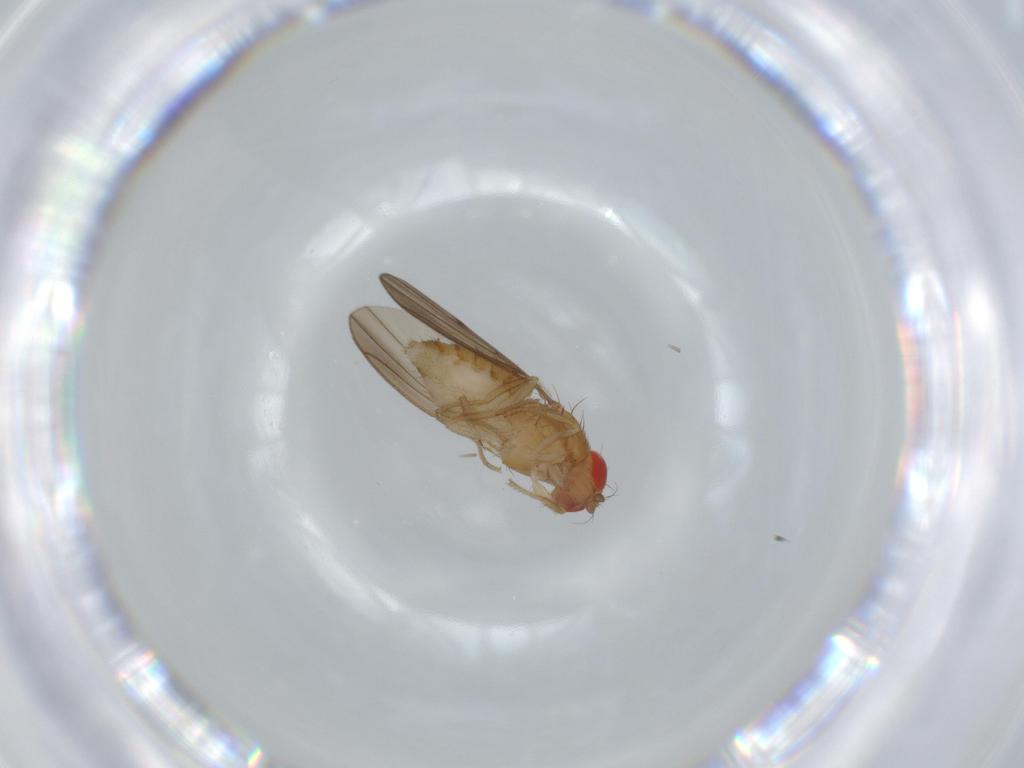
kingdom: Animalia
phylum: Arthropoda
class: Insecta
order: Diptera
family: Drosophilidae
